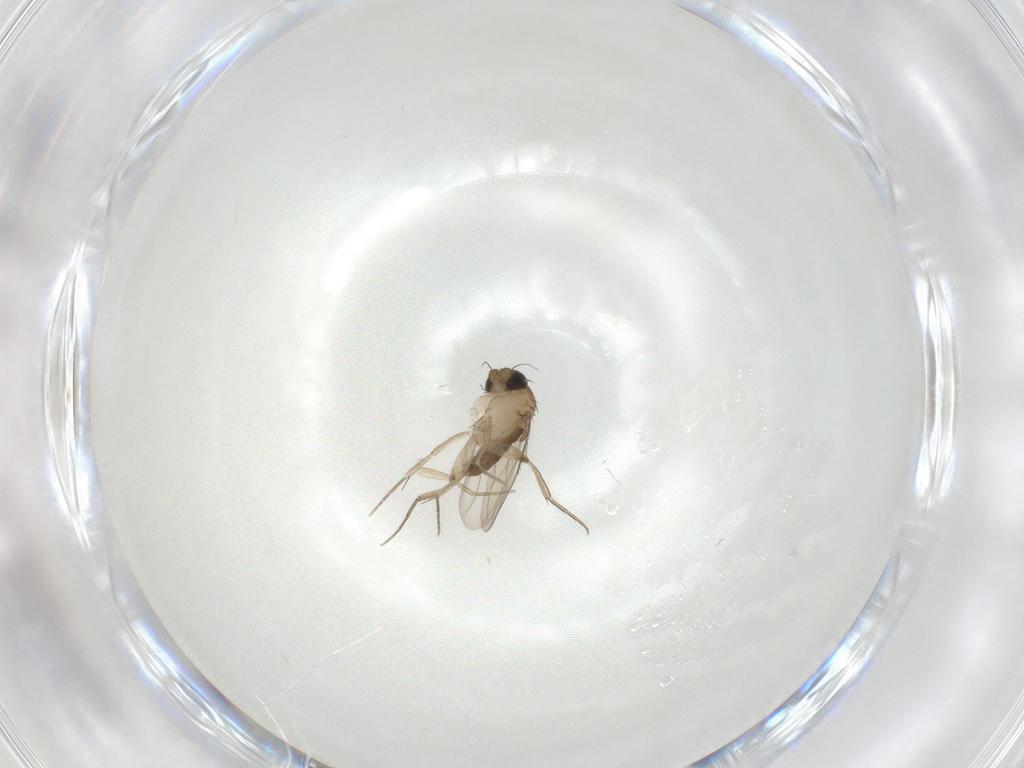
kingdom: Animalia
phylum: Arthropoda
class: Insecta
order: Diptera
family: Phoridae
